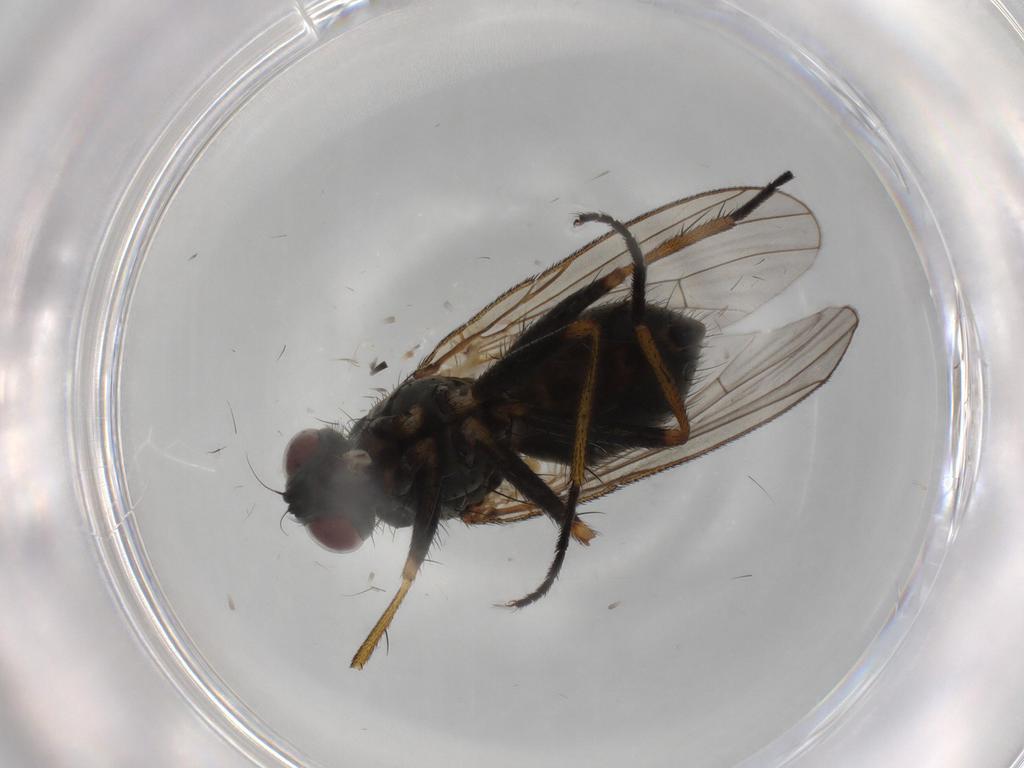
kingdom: Animalia
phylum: Arthropoda
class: Insecta
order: Diptera
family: Muscidae
